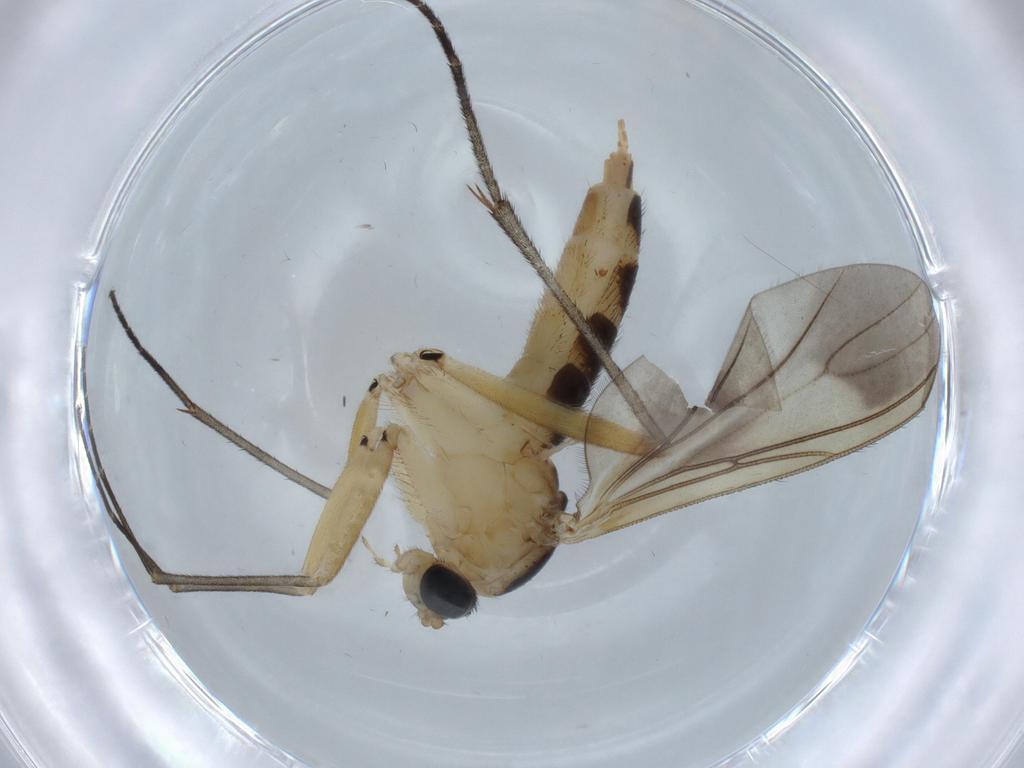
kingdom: Animalia
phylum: Arthropoda
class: Insecta
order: Diptera
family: Sciaridae
